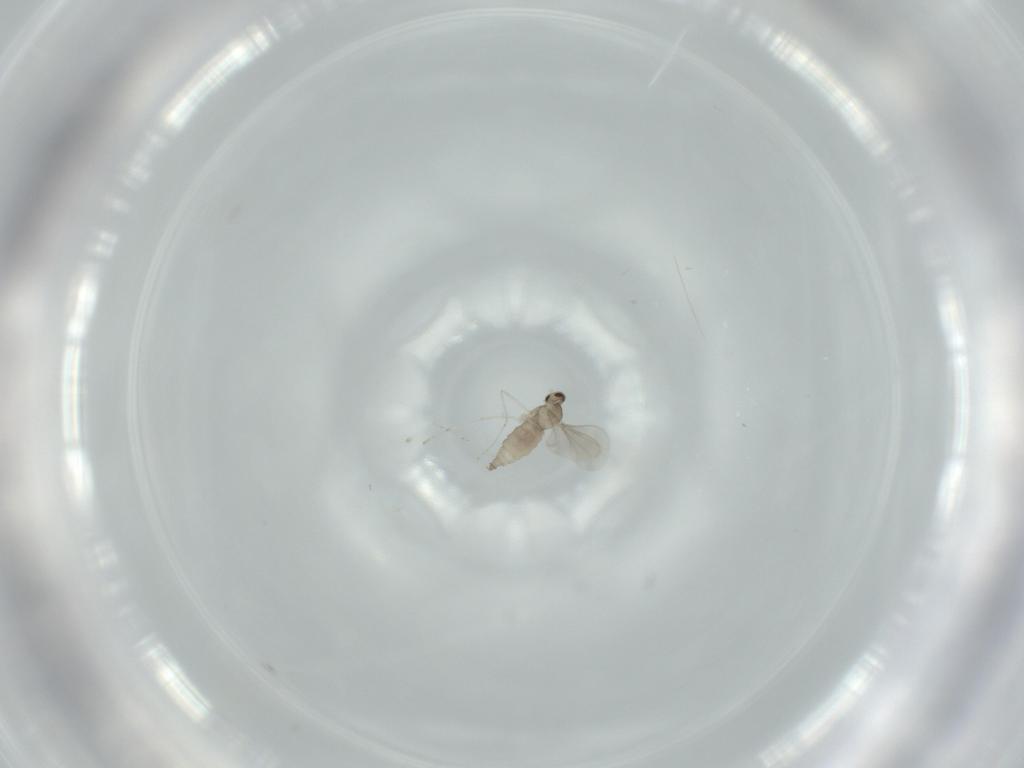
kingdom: Animalia
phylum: Arthropoda
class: Insecta
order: Diptera
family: Cecidomyiidae
